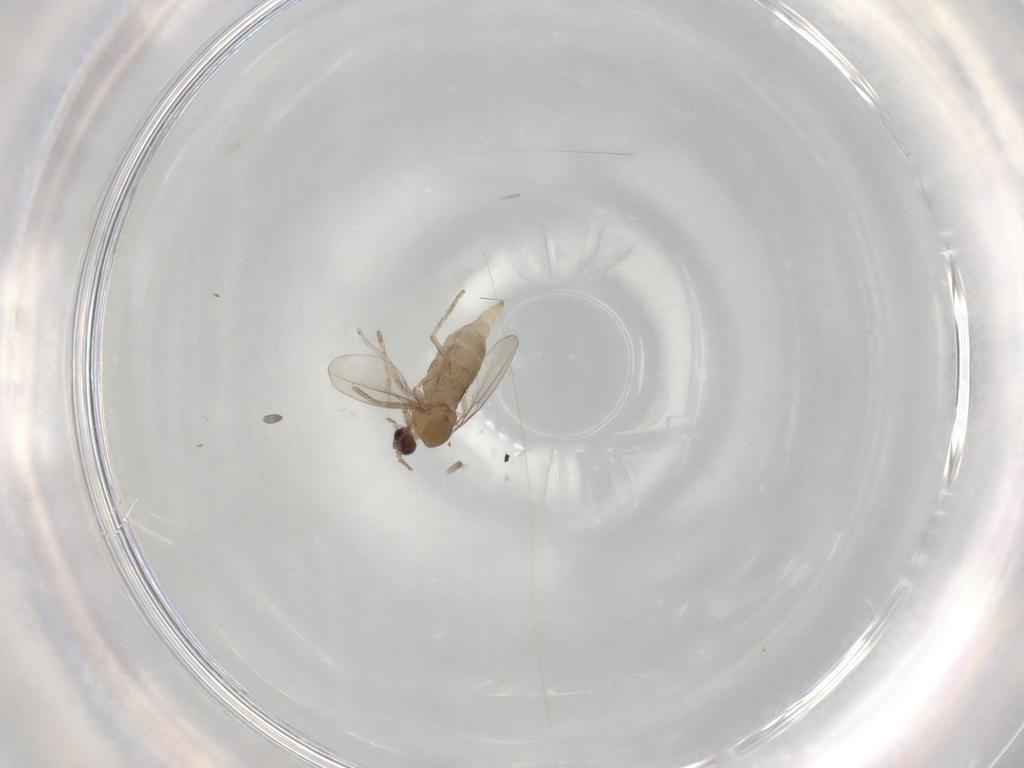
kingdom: Animalia
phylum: Arthropoda
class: Insecta
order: Diptera
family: Cecidomyiidae
